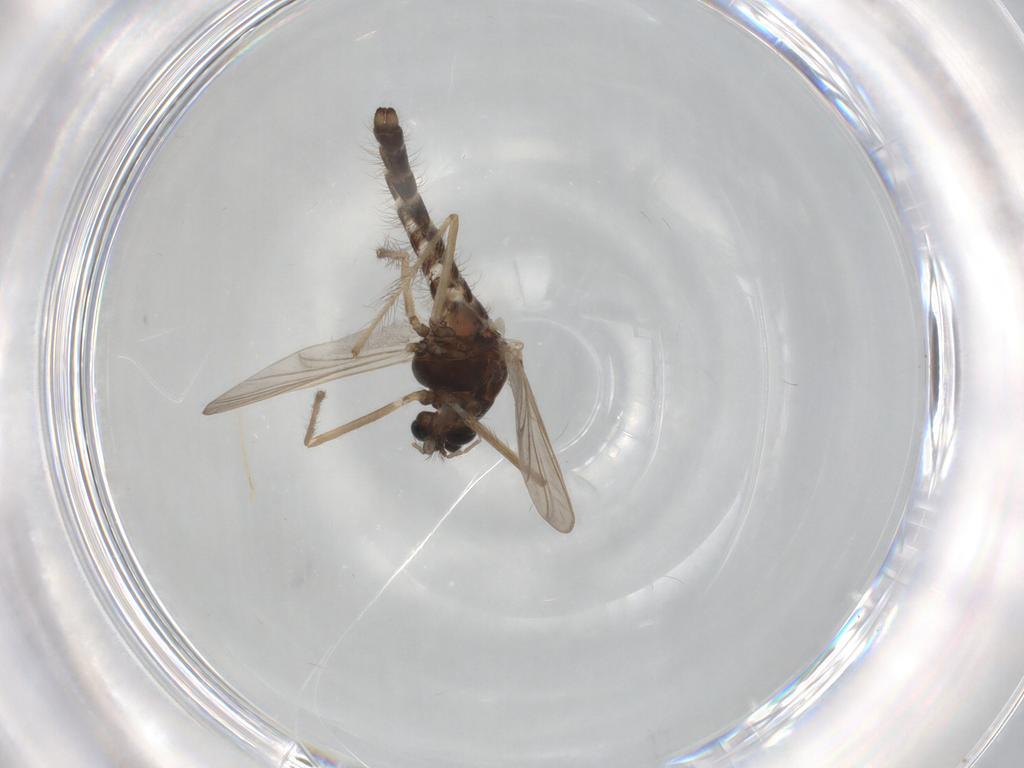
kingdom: Animalia
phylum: Arthropoda
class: Insecta
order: Diptera
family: Chironomidae
